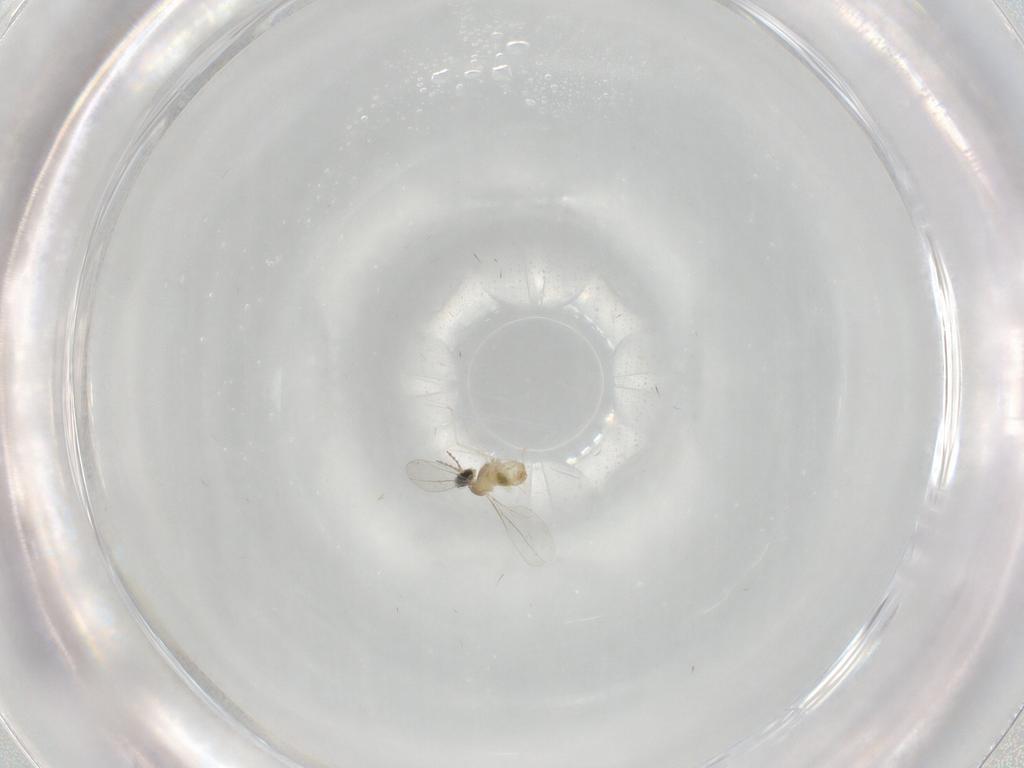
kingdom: Animalia
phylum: Arthropoda
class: Insecta
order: Diptera
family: Cecidomyiidae
